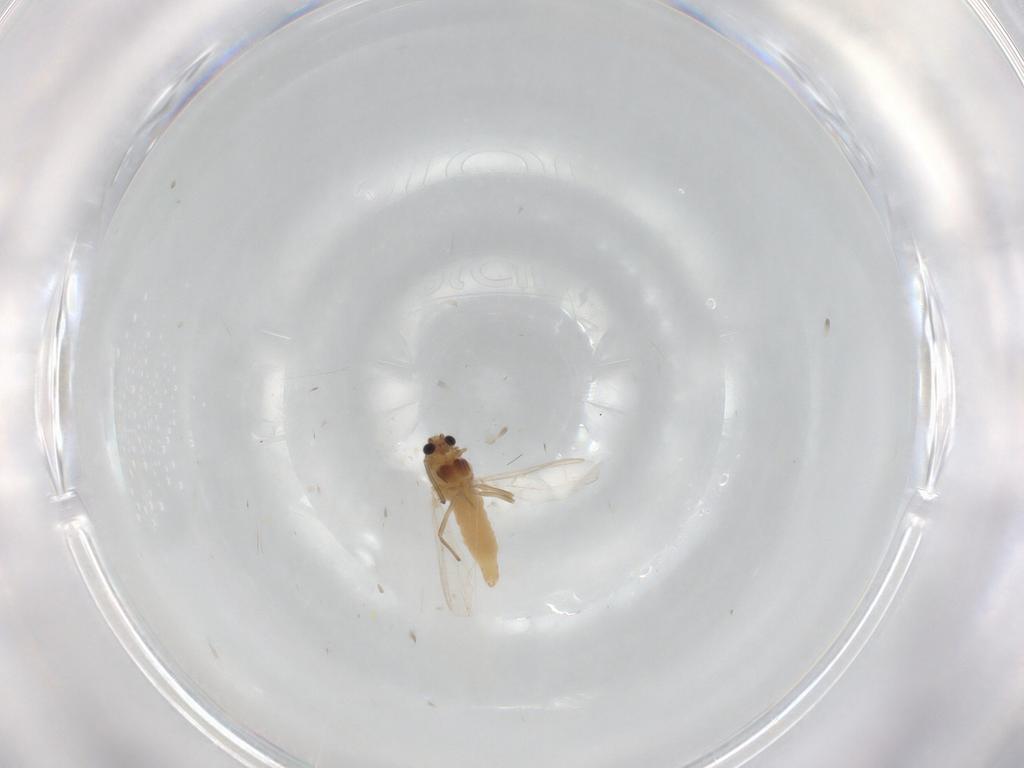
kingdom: Animalia
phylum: Arthropoda
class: Insecta
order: Diptera
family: Chironomidae
